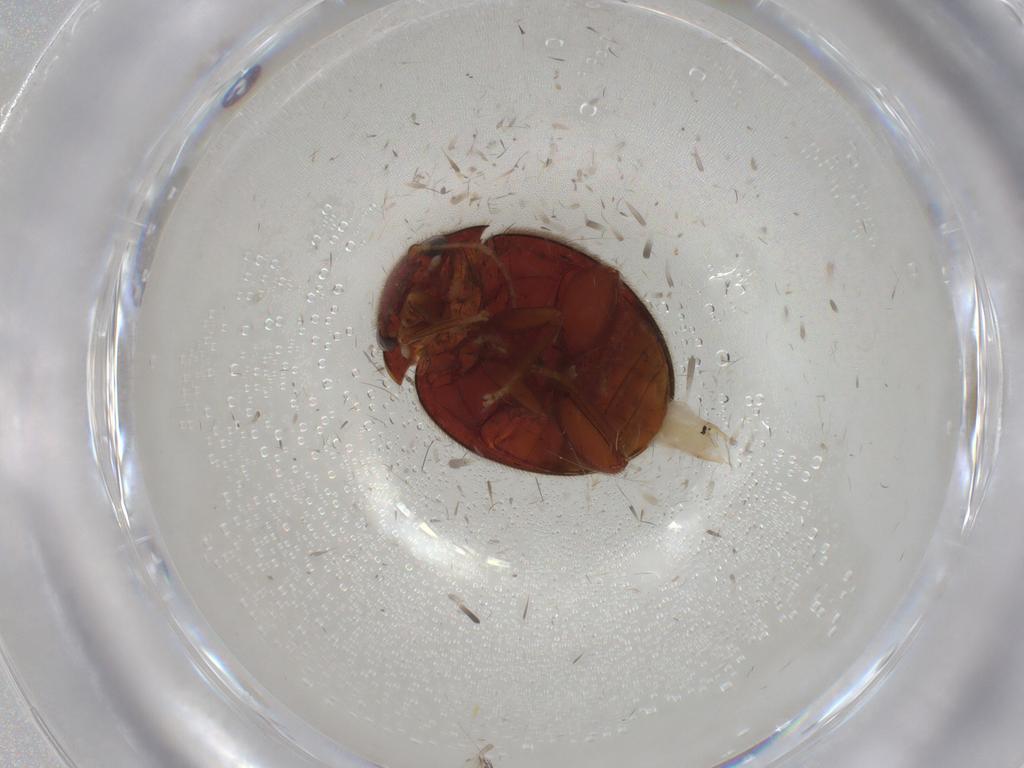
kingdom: Animalia
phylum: Arthropoda
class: Insecta
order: Coleoptera
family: Scirtidae
